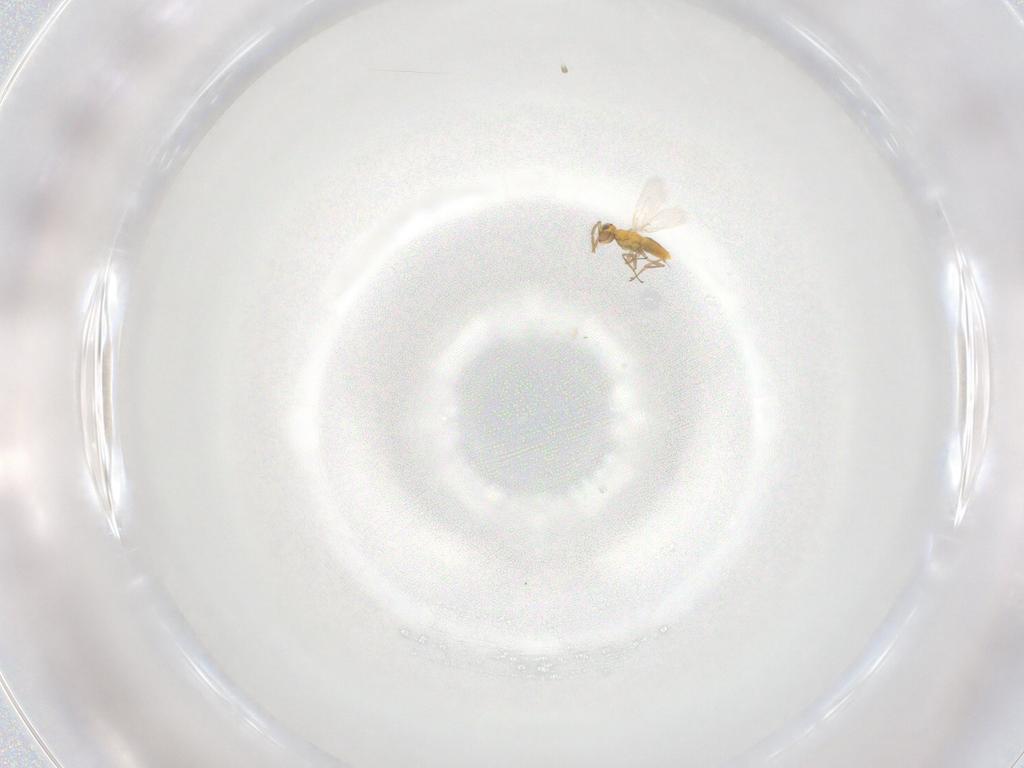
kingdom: Animalia
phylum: Arthropoda
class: Insecta
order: Hymenoptera
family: Aphelinidae
